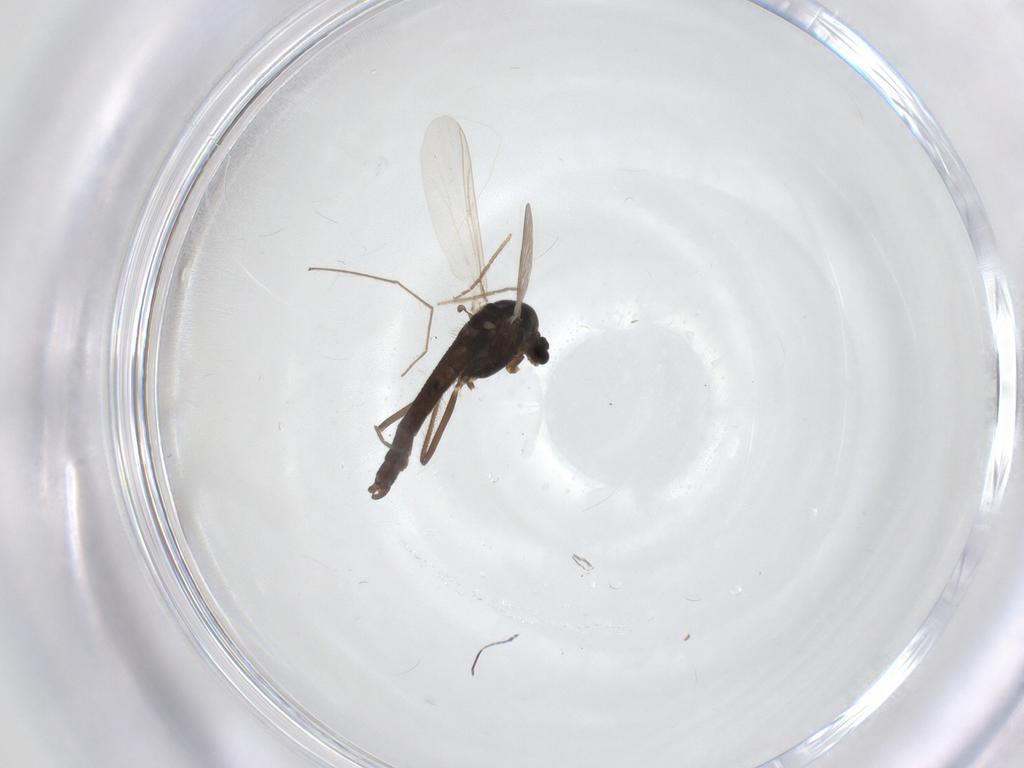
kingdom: Animalia
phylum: Arthropoda
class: Insecta
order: Diptera
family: Chironomidae
